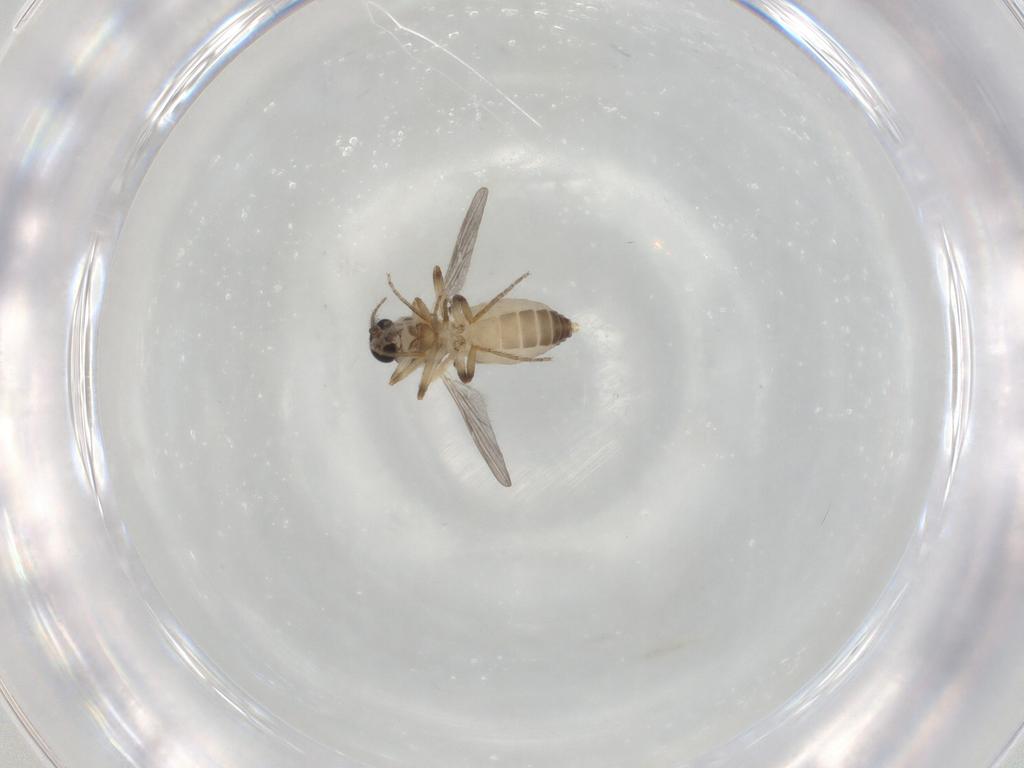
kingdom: Animalia
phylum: Arthropoda
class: Insecta
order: Diptera
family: Ceratopogonidae
